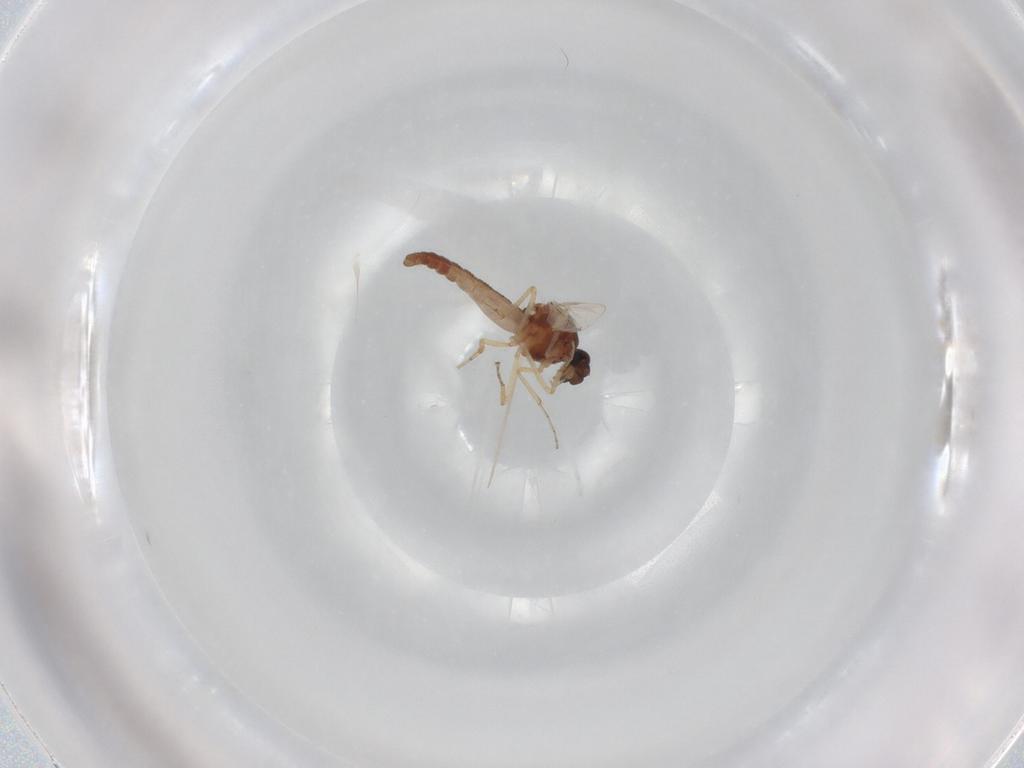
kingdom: Animalia
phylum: Arthropoda
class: Insecta
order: Diptera
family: Ceratopogonidae
